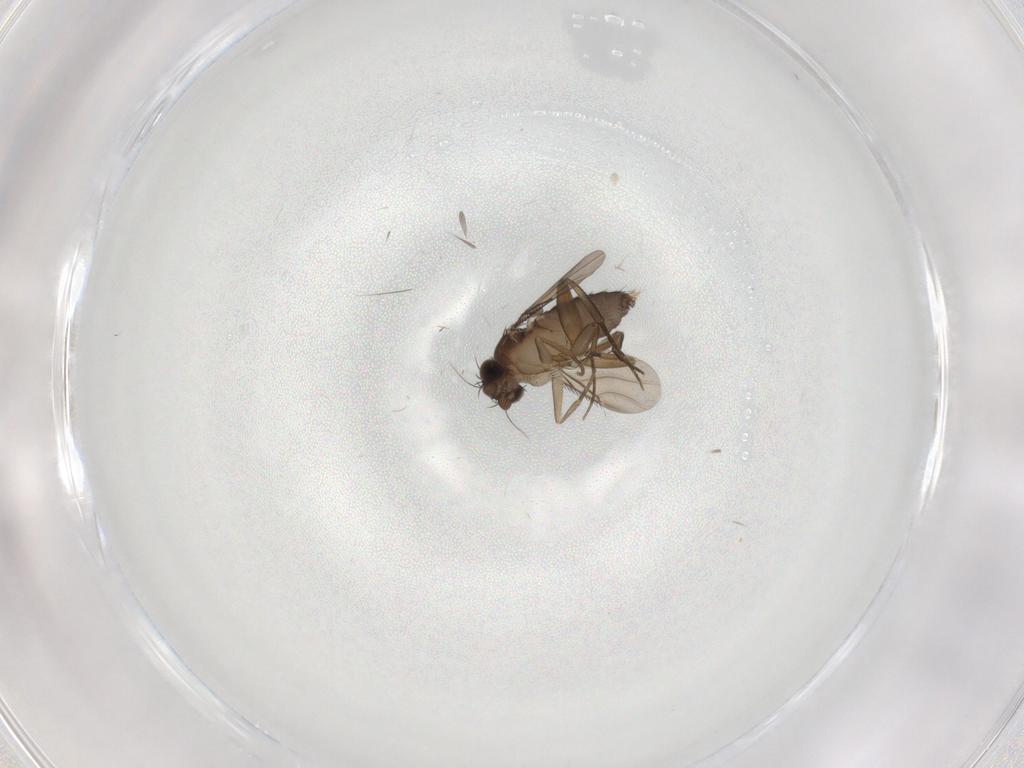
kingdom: Animalia
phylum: Arthropoda
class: Insecta
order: Diptera
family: Phoridae
